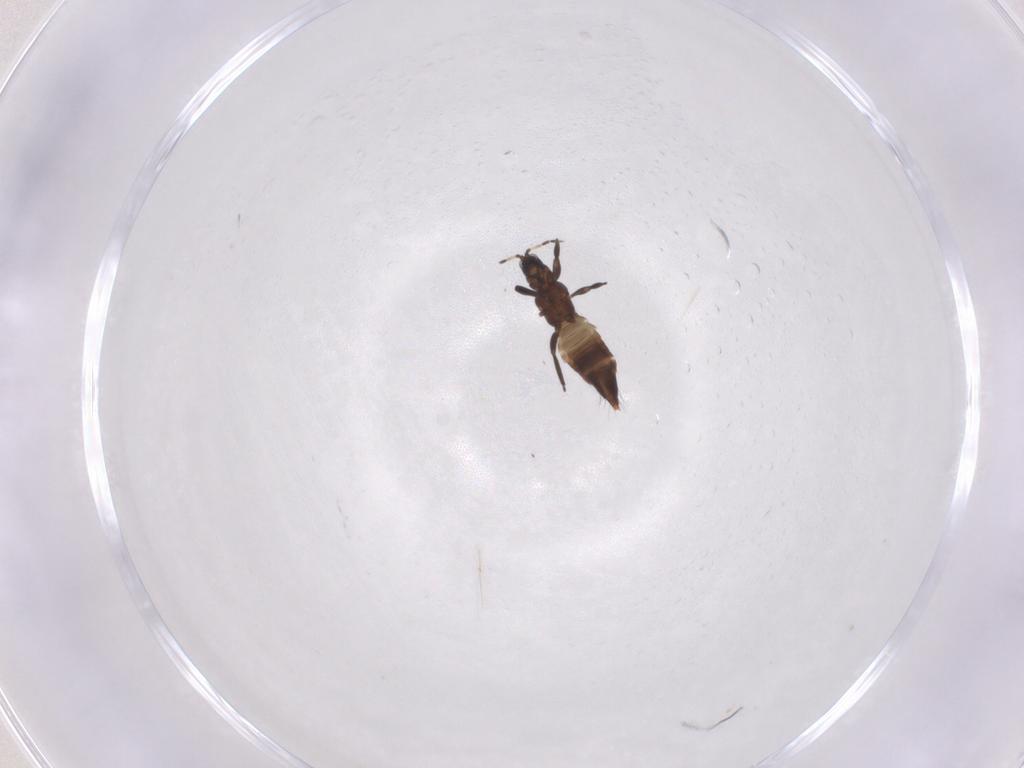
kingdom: Animalia
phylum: Arthropoda
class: Insecta
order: Thysanoptera
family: Aeolothripidae
